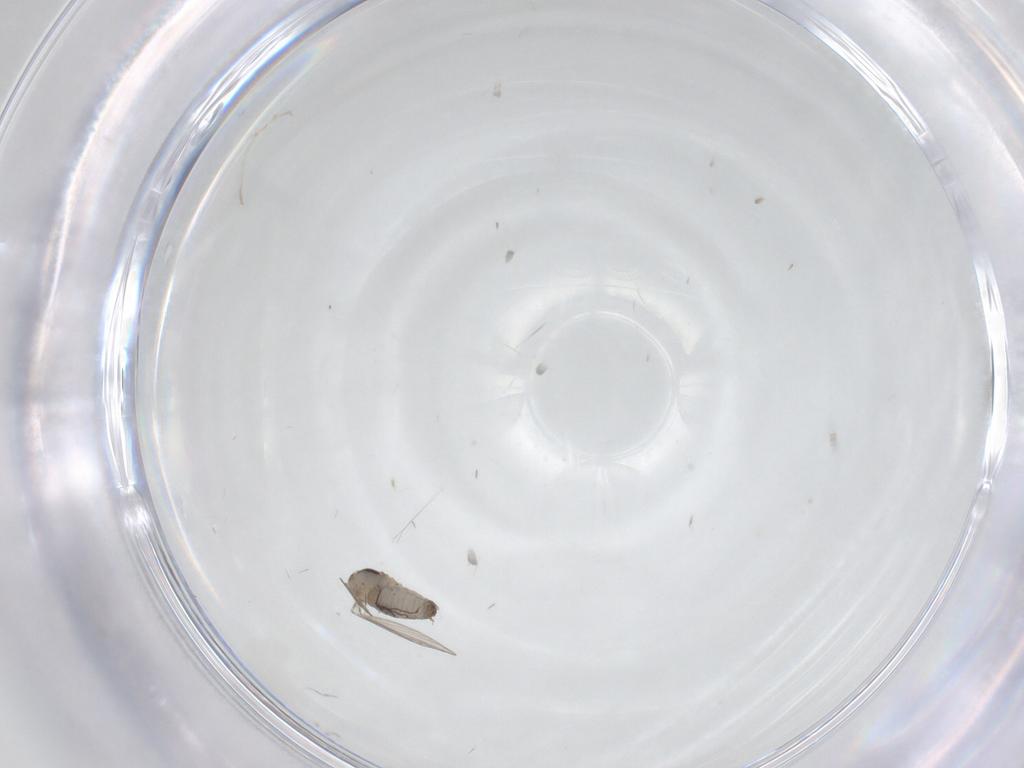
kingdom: Animalia
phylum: Arthropoda
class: Insecta
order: Diptera
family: Psychodidae
